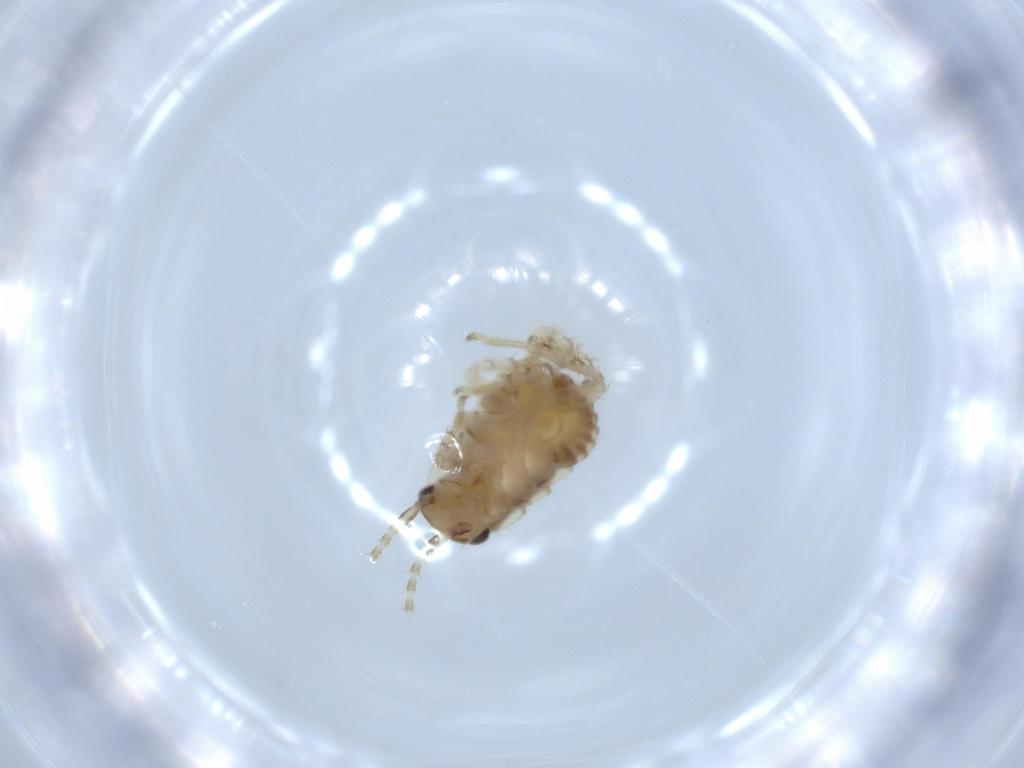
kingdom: Animalia
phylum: Arthropoda
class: Insecta
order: Blattodea
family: Ectobiidae
